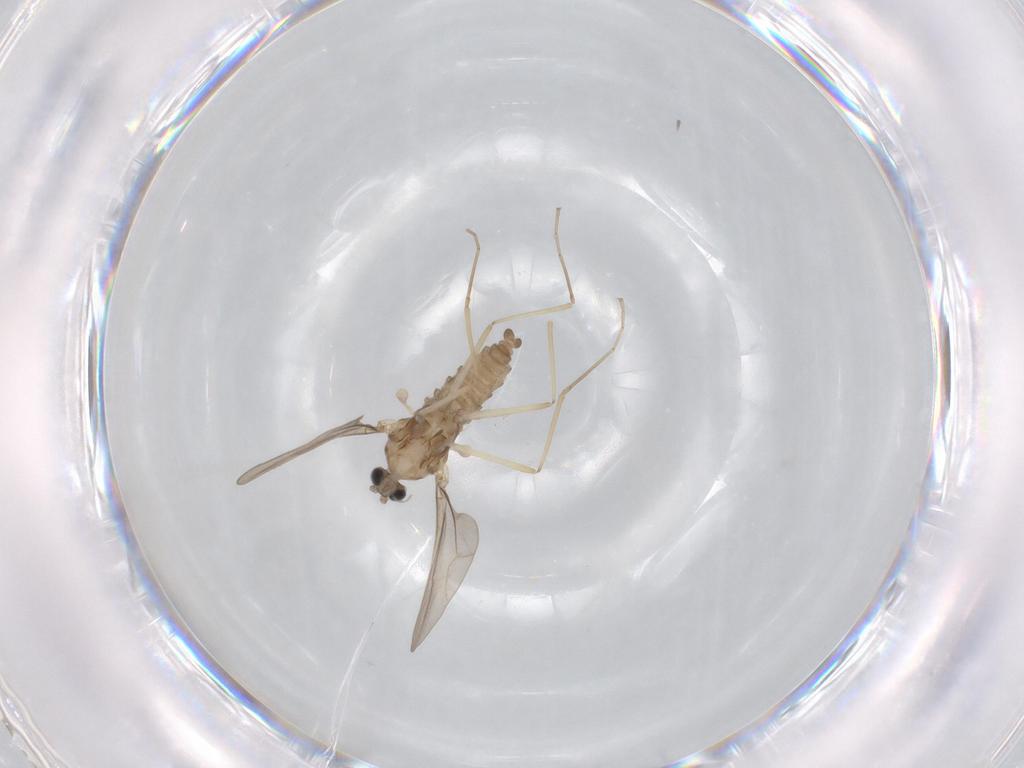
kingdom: Animalia
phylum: Arthropoda
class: Insecta
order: Diptera
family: Cecidomyiidae
